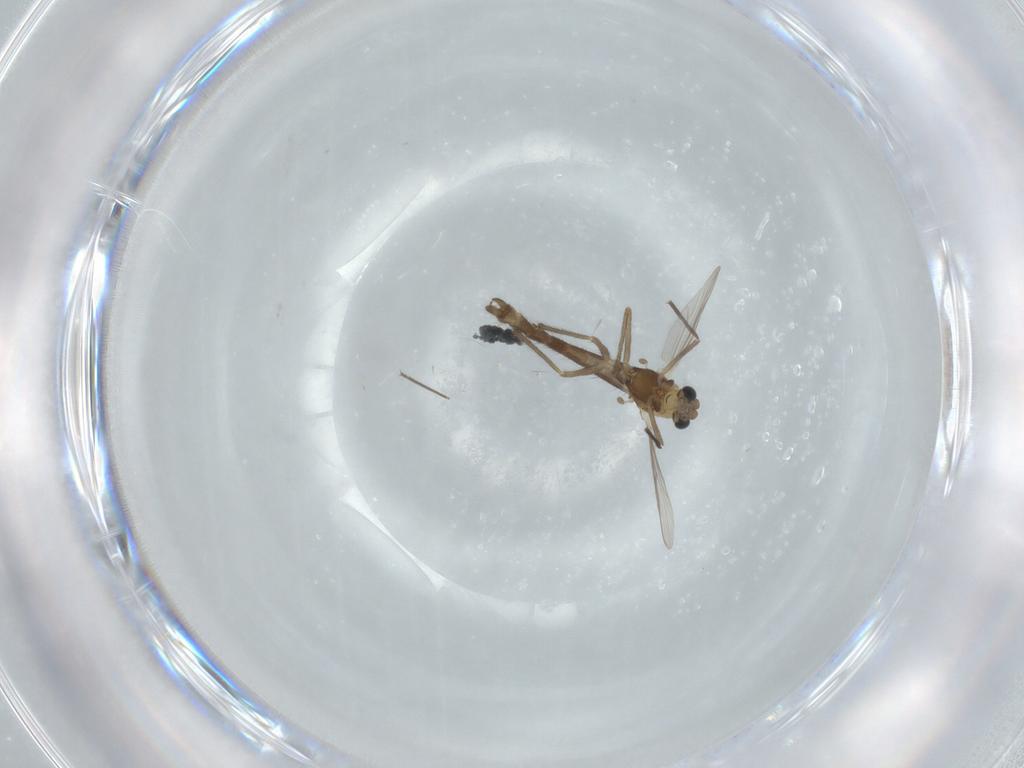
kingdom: Animalia
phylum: Arthropoda
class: Insecta
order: Diptera
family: Chironomidae
